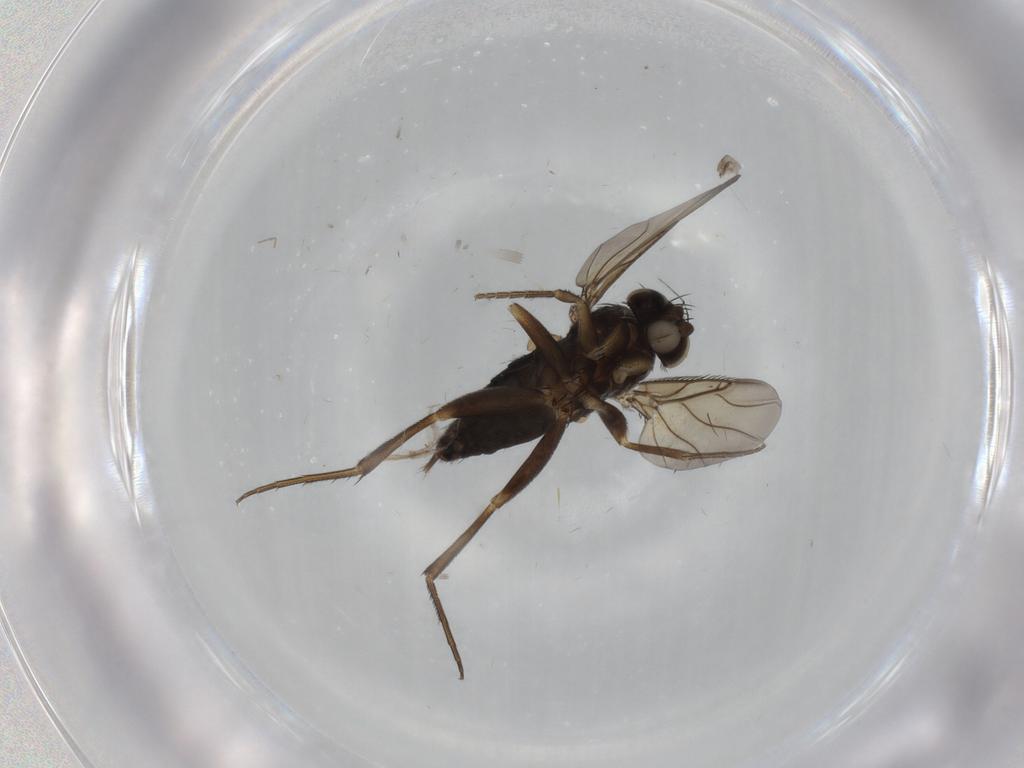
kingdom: Animalia
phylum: Arthropoda
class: Insecta
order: Diptera
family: Phoridae
